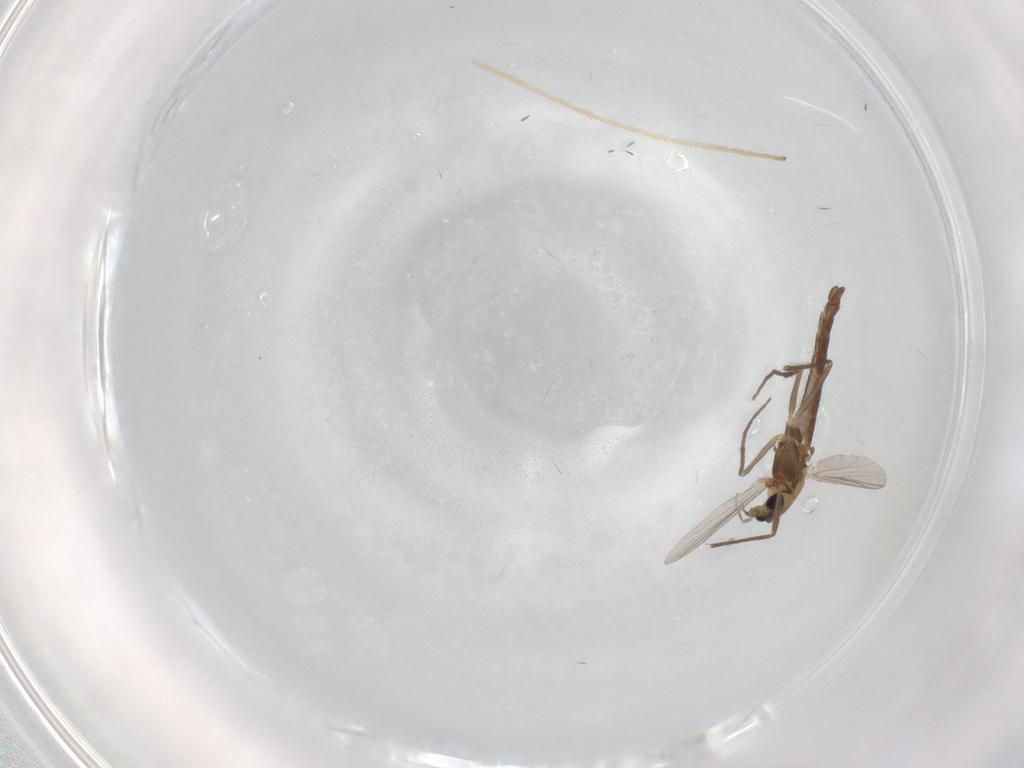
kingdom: Animalia
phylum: Arthropoda
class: Insecta
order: Diptera
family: Chironomidae
